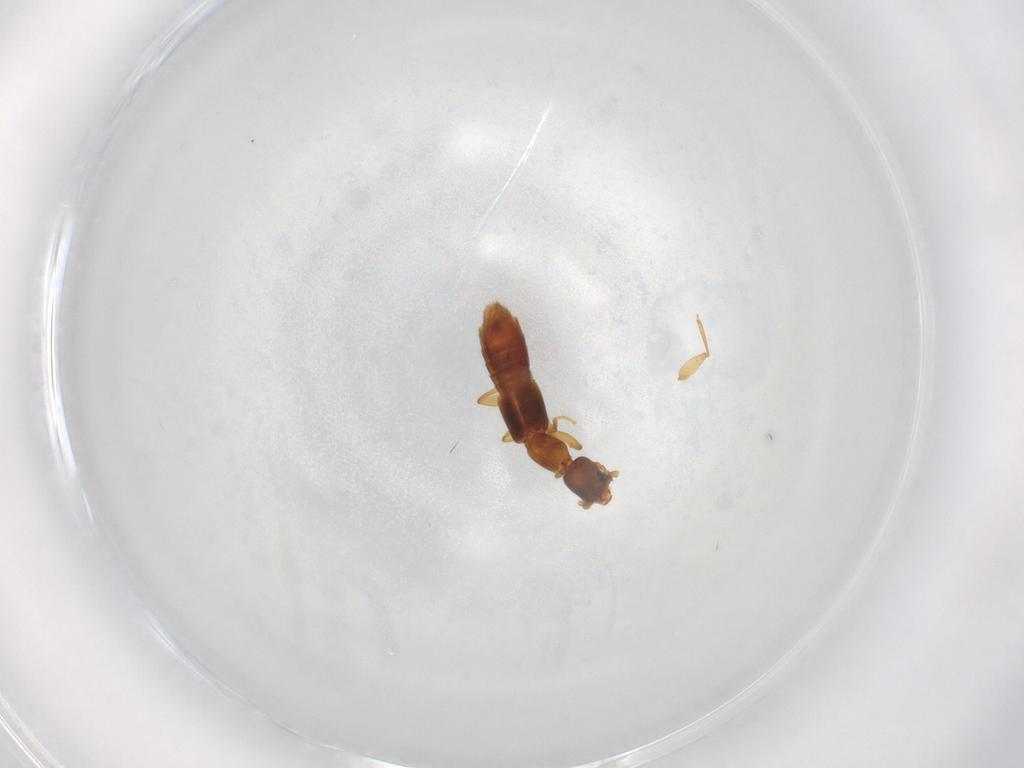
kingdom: Animalia
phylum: Arthropoda
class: Insecta
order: Coleoptera
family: Staphylinidae
